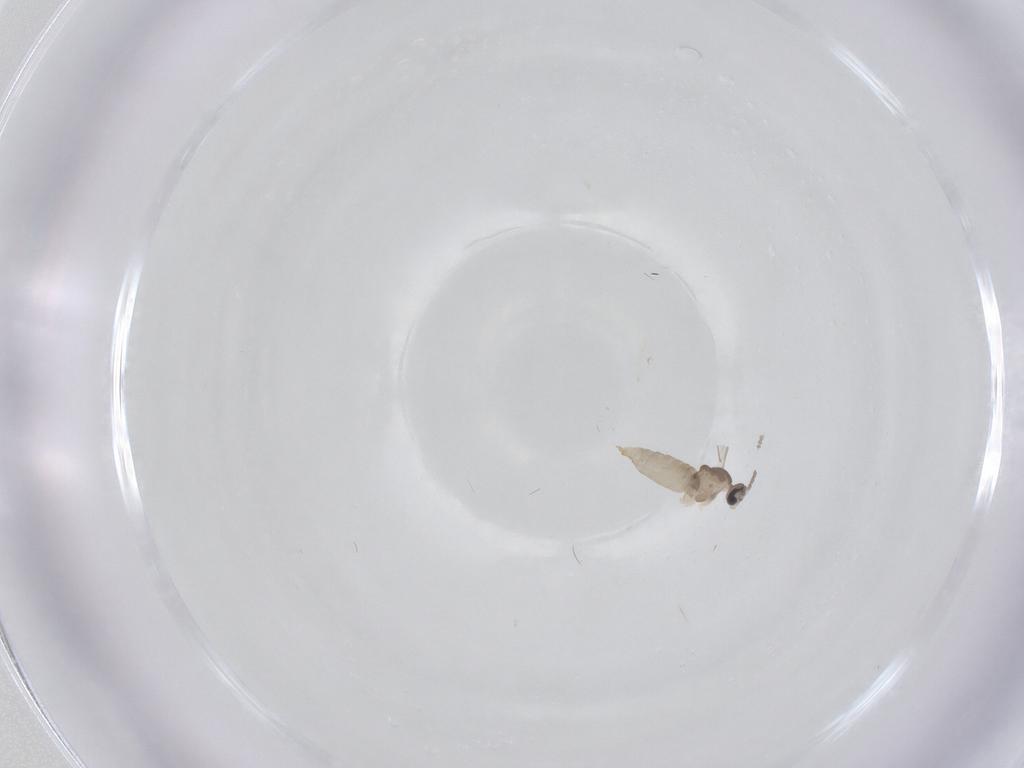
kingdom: Animalia
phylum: Arthropoda
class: Insecta
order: Diptera
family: Psychodidae
